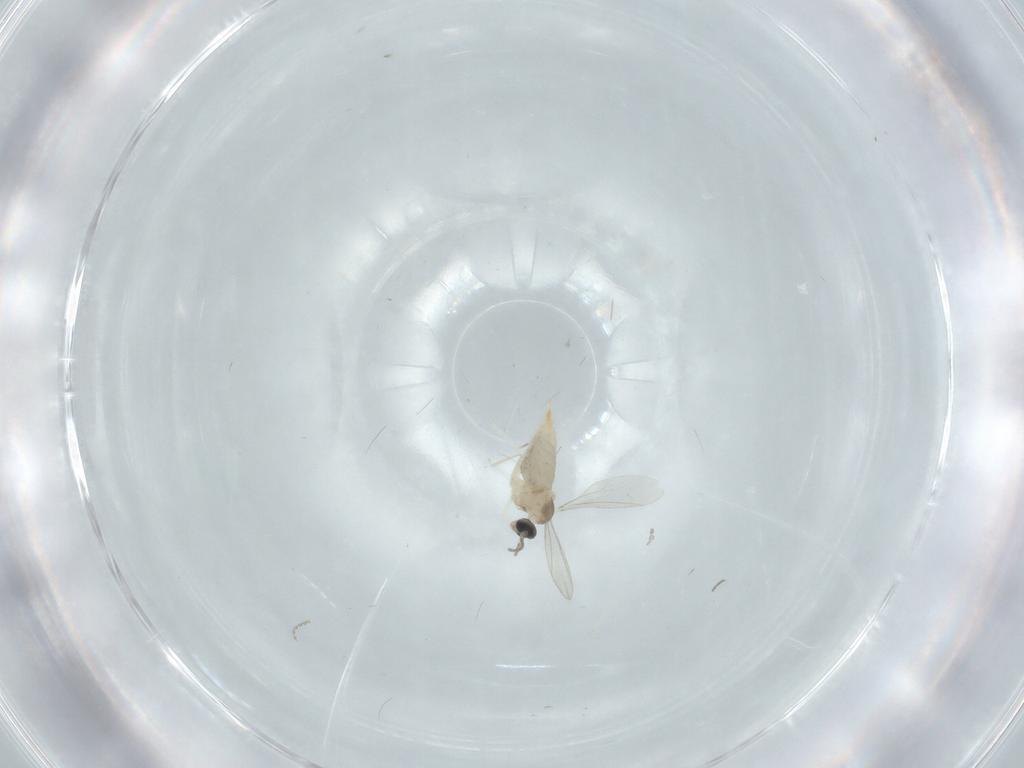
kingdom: Animalia
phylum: Arthropoda
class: Insecta
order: Diptera
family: Cecidomyiidae
